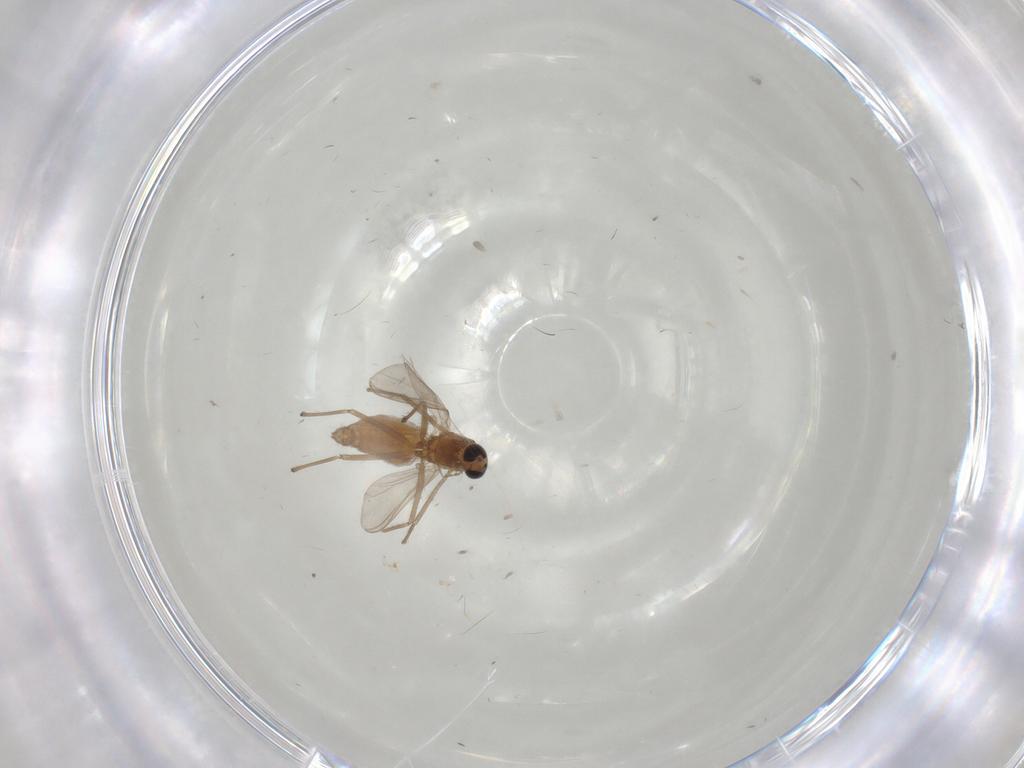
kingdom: Animalia
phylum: Arthropoda
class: Insecta
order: Diptera
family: Chironomidae
